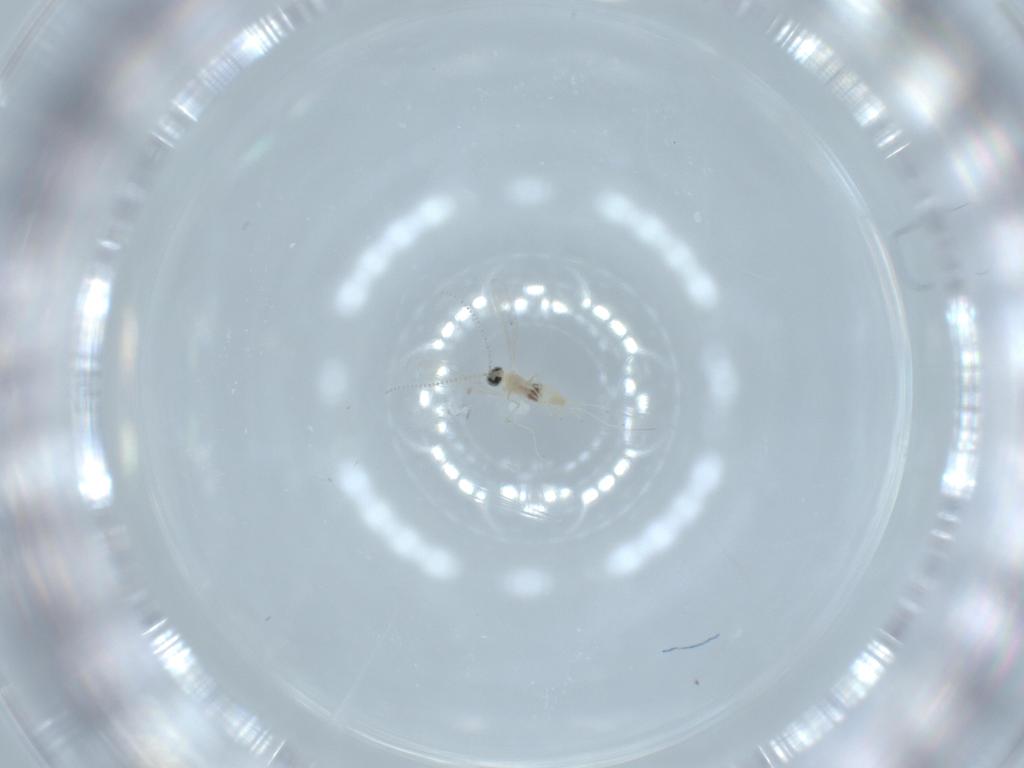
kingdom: Animalia
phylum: Arthropoda
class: Insecta
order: Diptera
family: Cecidomyiidae
